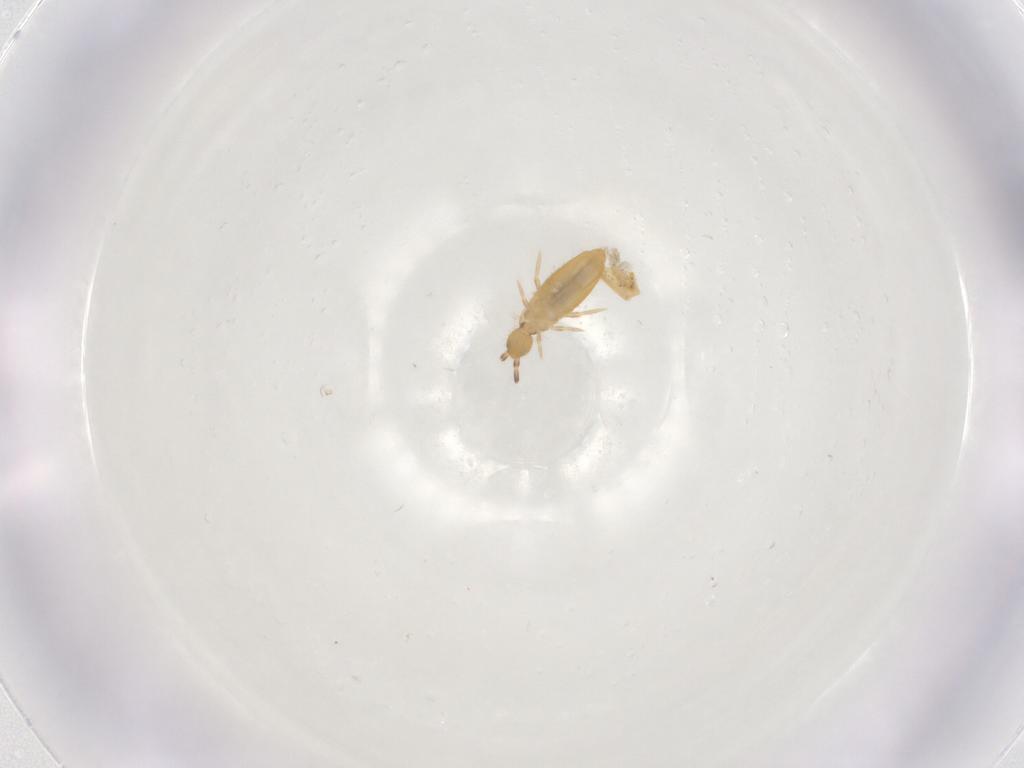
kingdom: Animalia
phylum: Arthropoda
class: Collembola
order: Entomobryomorpha
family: Entomobryidae
